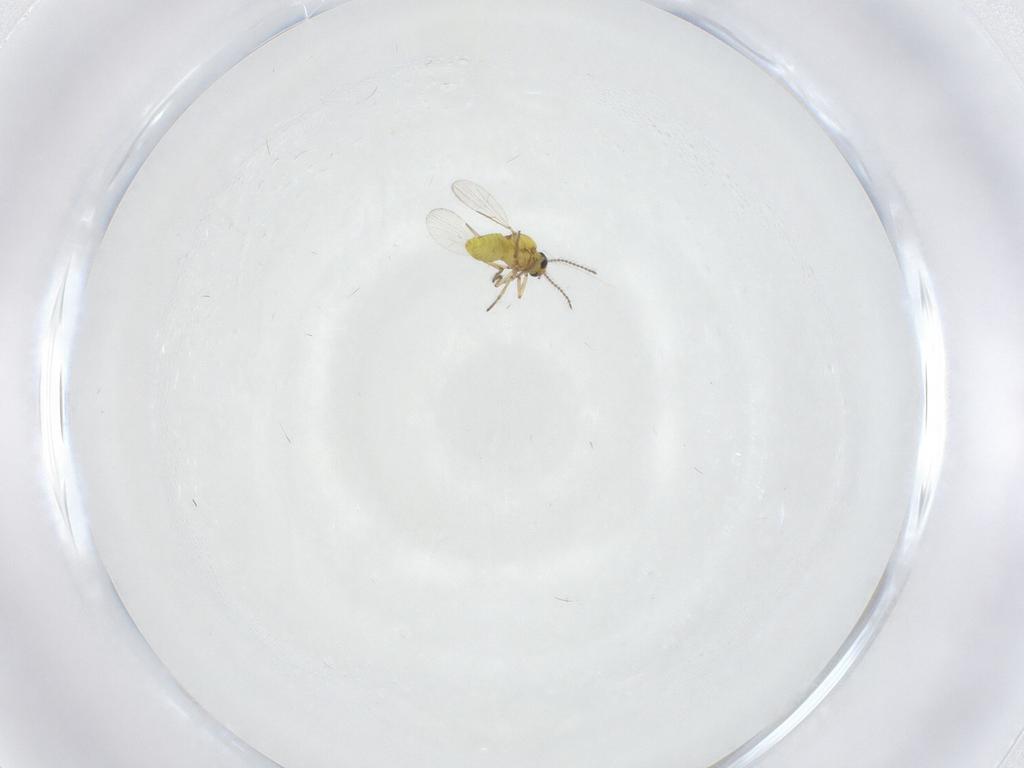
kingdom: Animalia
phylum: Arthropoda
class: Insecta
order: Diptera
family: Ceratopogonidae
